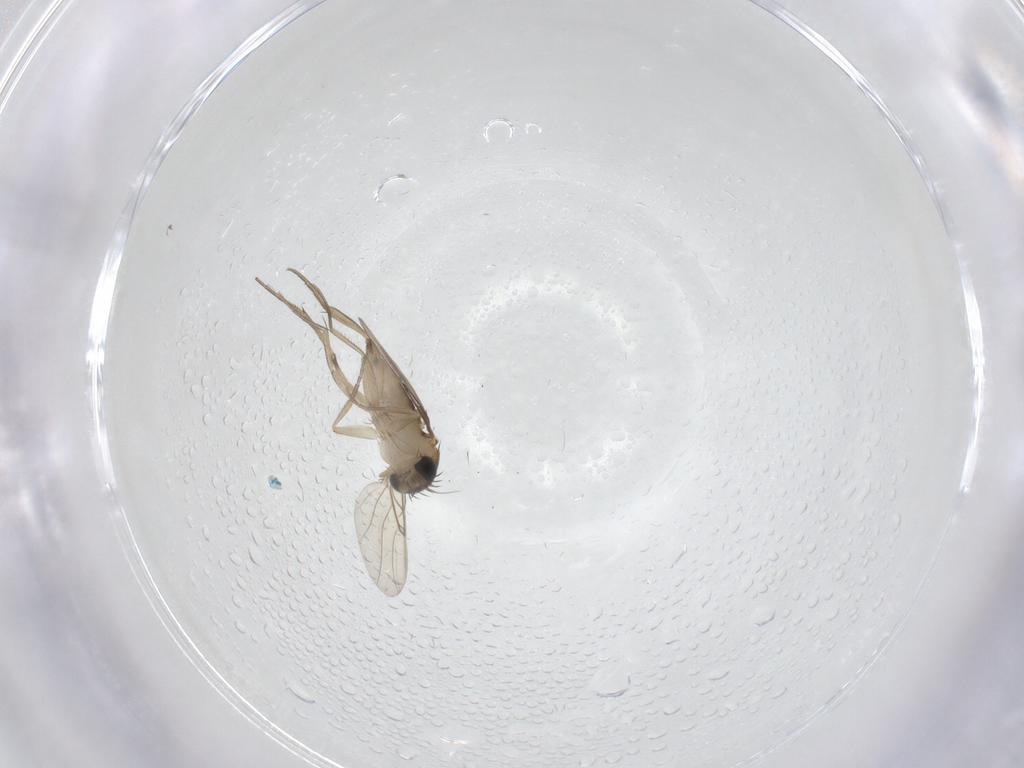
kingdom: Animalia
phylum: Arthropoda
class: Insecta
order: Diptera
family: Phoridae
